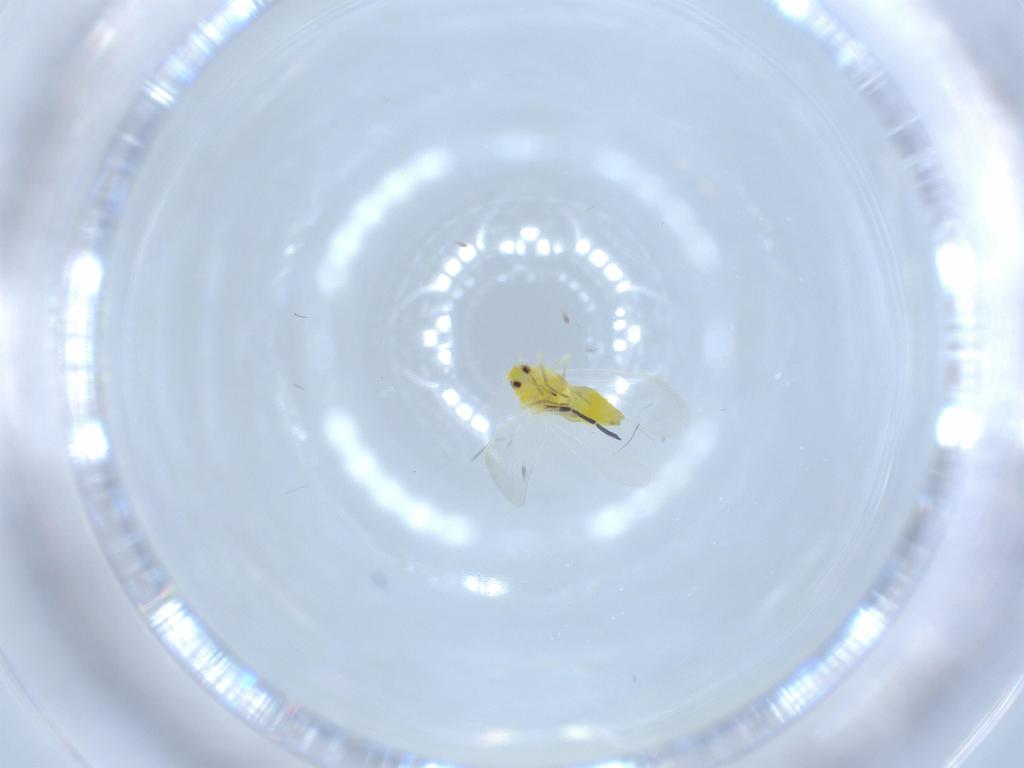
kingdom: Animalia
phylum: Arthropoda
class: Insecta
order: Hemiptera
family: Aleyrodidae
